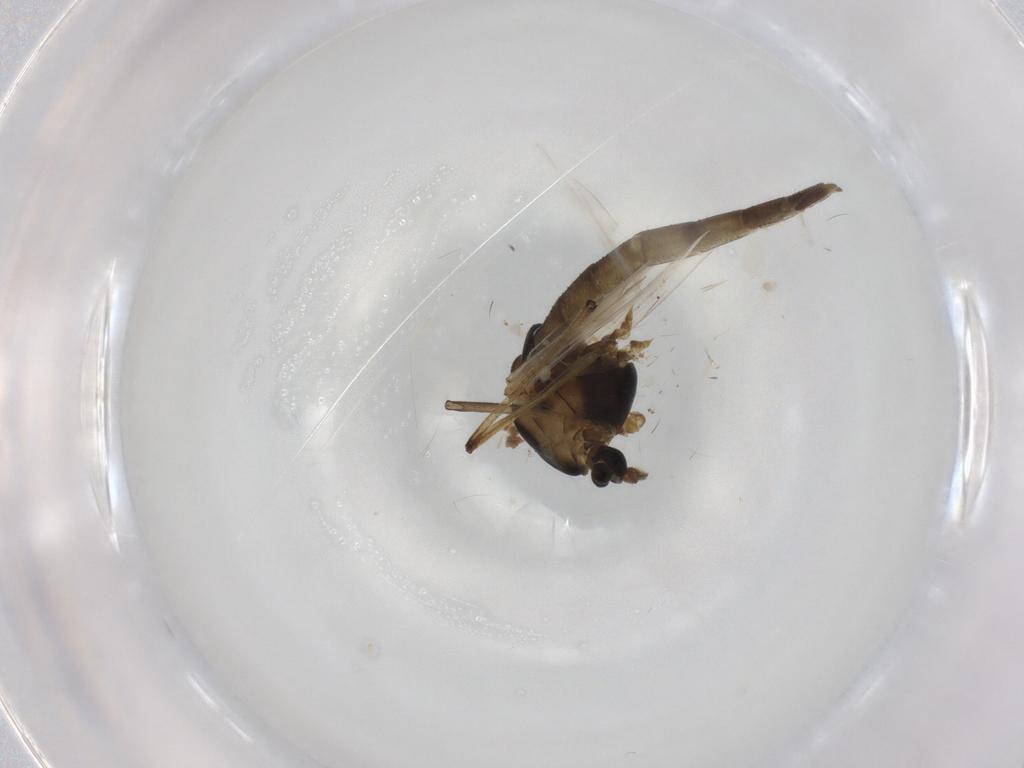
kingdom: Animalia
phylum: Arthropoda
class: Insecta
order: Diptera
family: Chironomidae
